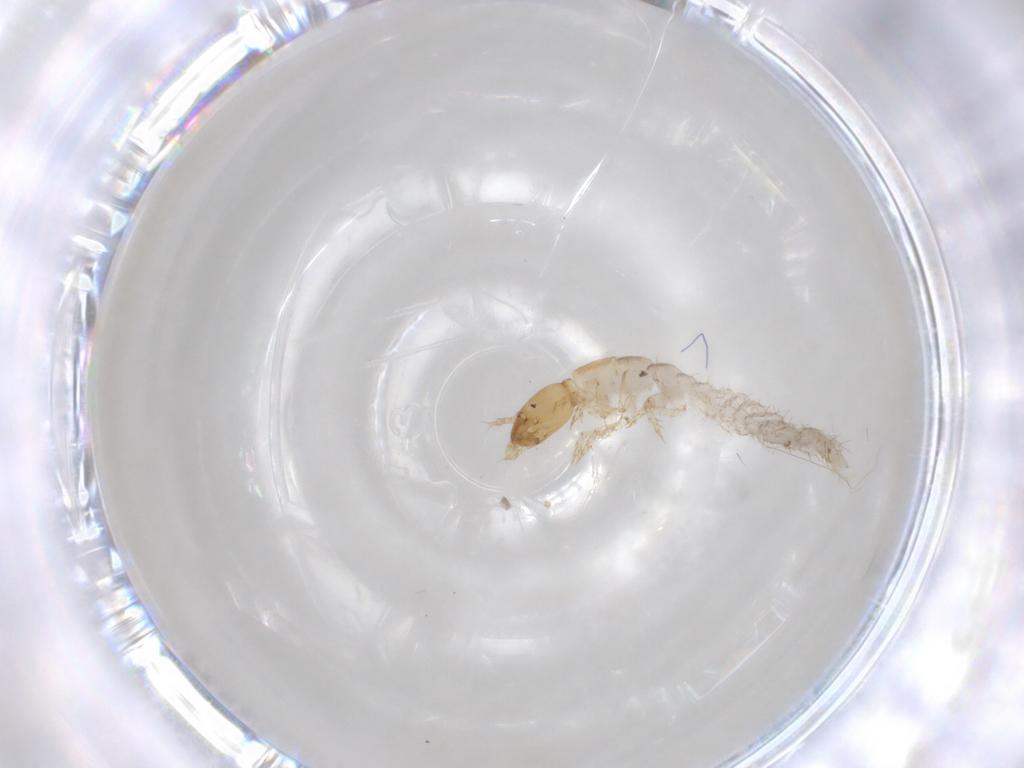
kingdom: Animalia
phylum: Arthropoda
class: Insecta
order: Coleoptera
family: Staphylinidae
